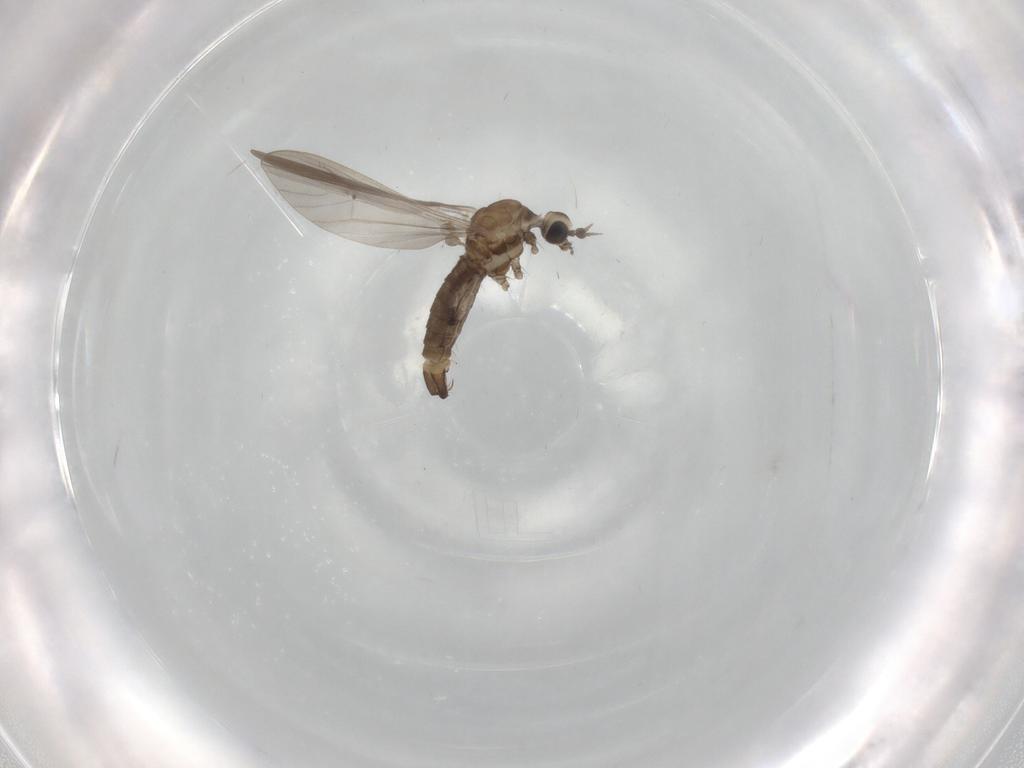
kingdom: Animalia
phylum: Arthropoda
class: Insecta
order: Diptera
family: Limoniidae
